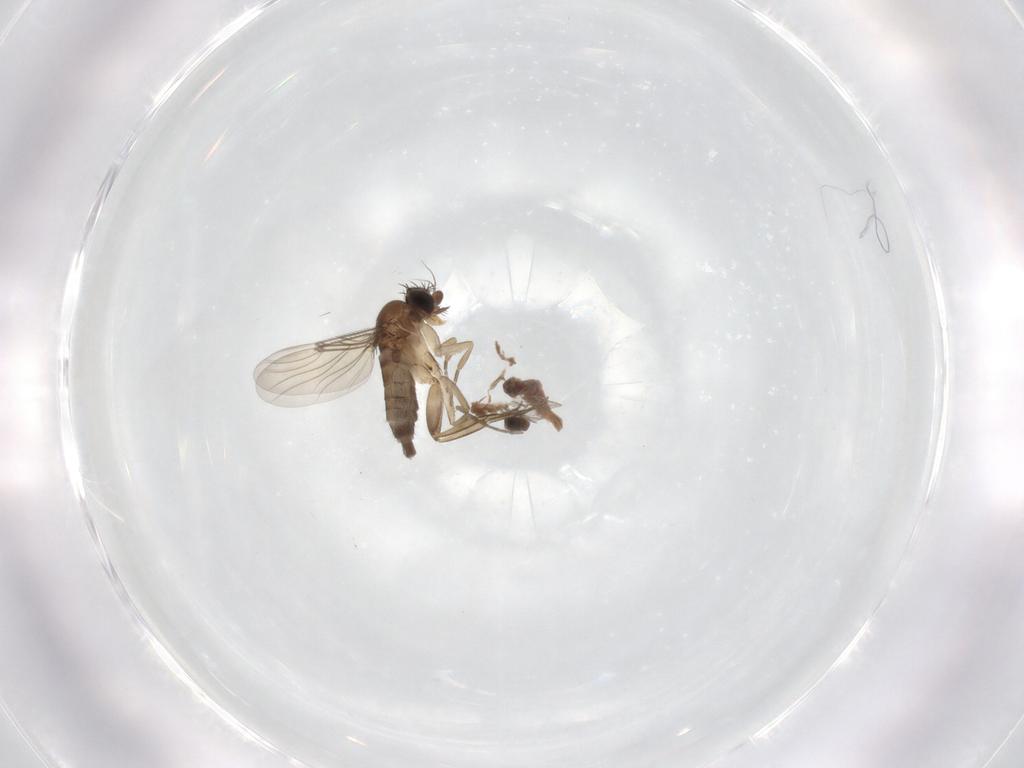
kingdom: Animalia
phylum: Arthropoda
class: Insecta
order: Diptera
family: Phoridae
